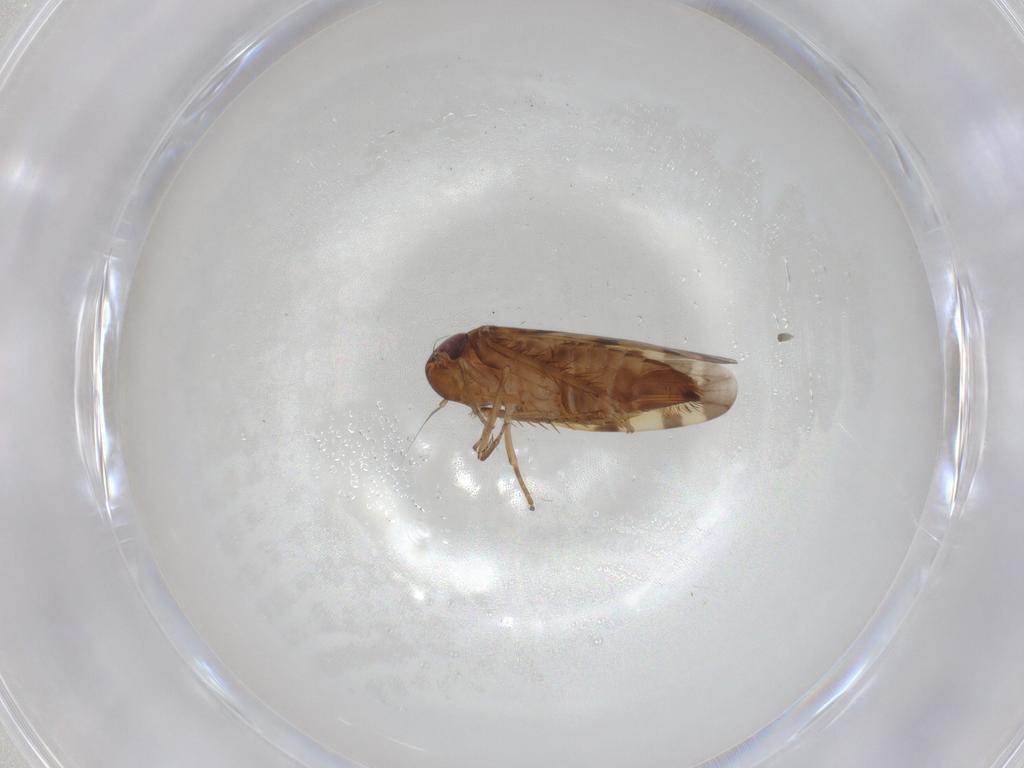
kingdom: Animalia
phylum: Arthropoda
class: Insecta
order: Hemiptera
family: Cicadellidae
